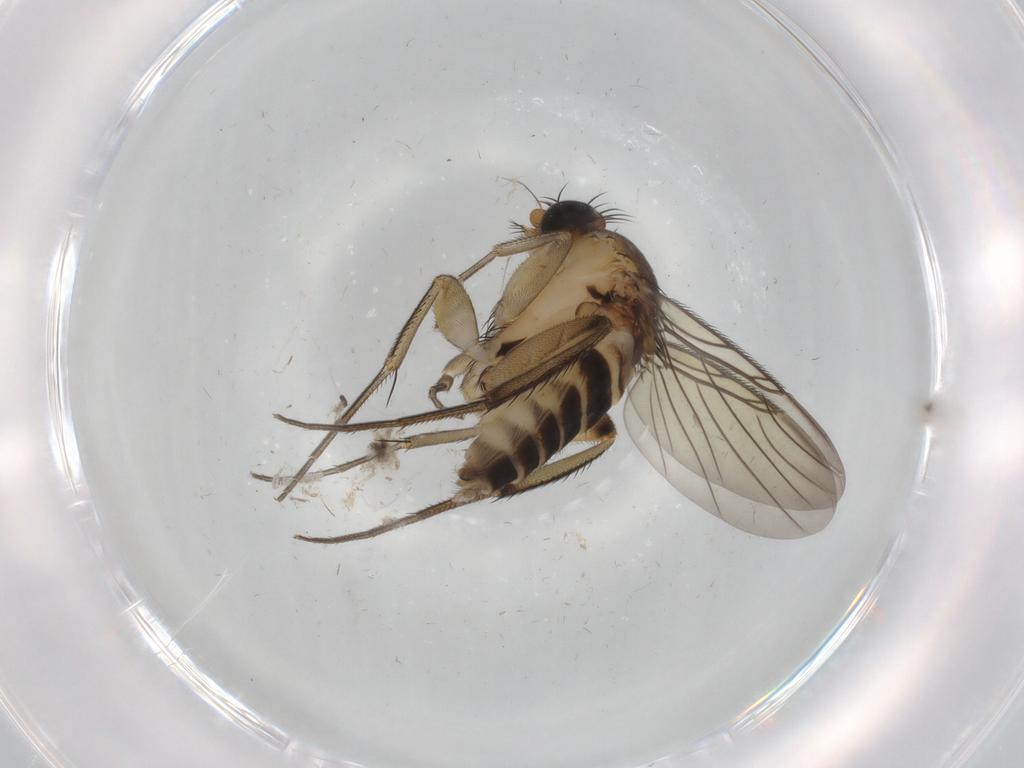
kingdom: Animalia
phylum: Arthropoda
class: Insecta
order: Diptera
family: Phoridae
